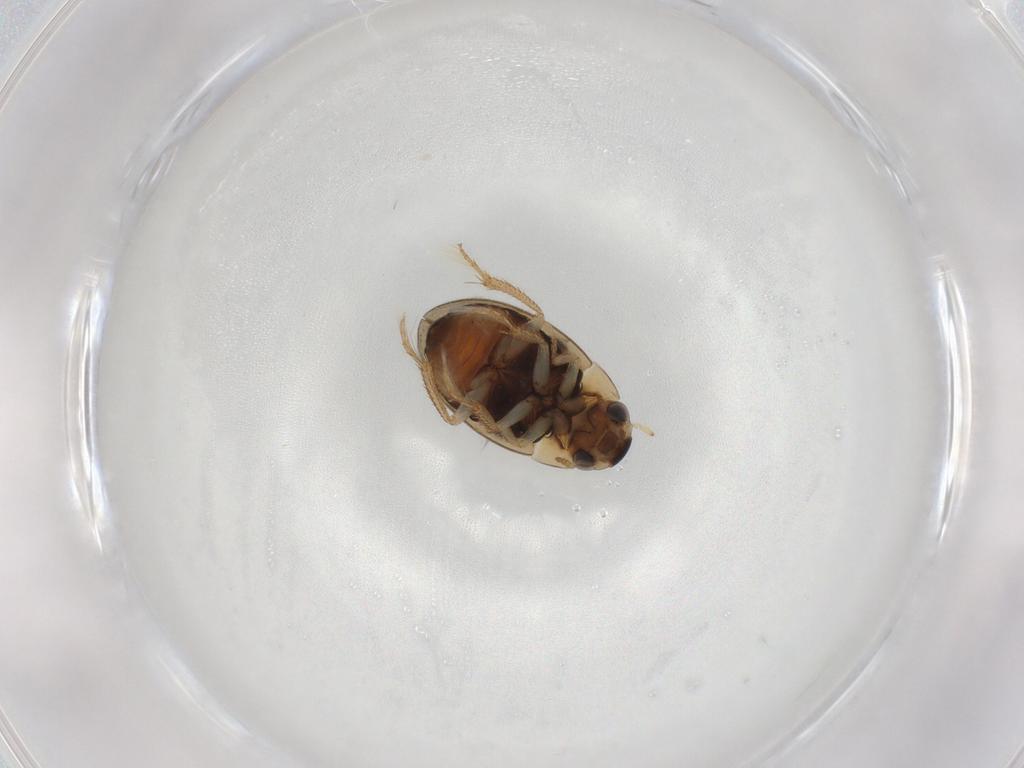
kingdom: Animalia
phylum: Arthropoda
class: Insecta
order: Coleoptera
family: Hydrophilidae
